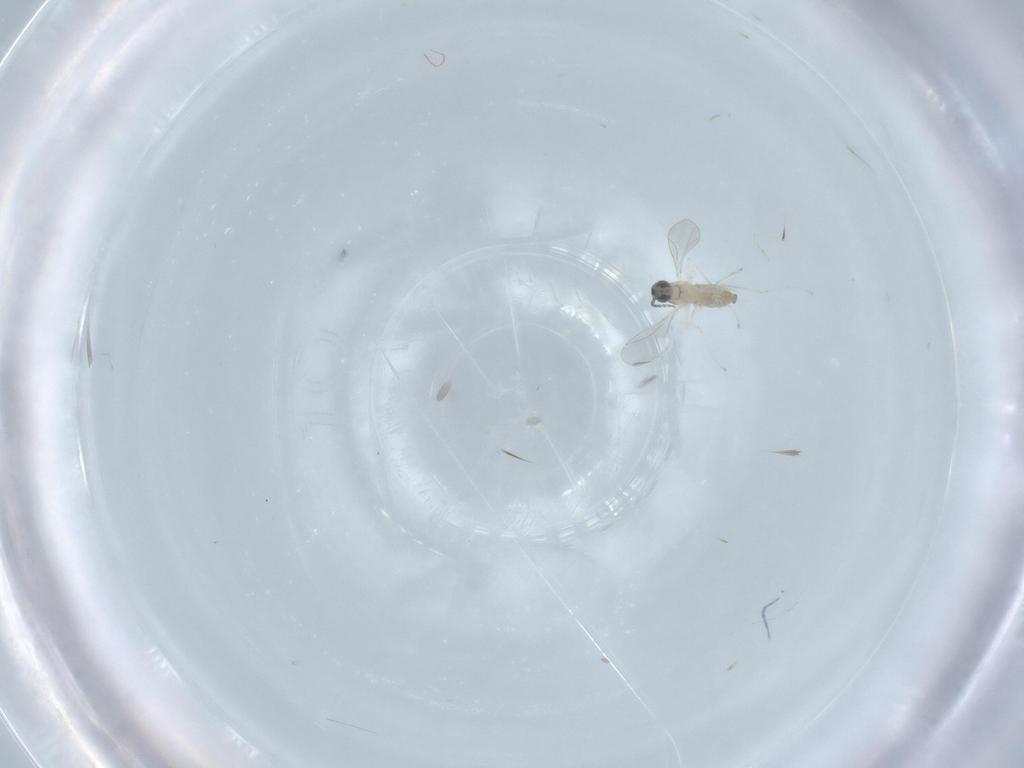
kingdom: Animalia
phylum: Arthropoda
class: Insecta
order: Diptera
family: Cecidomyiidae
